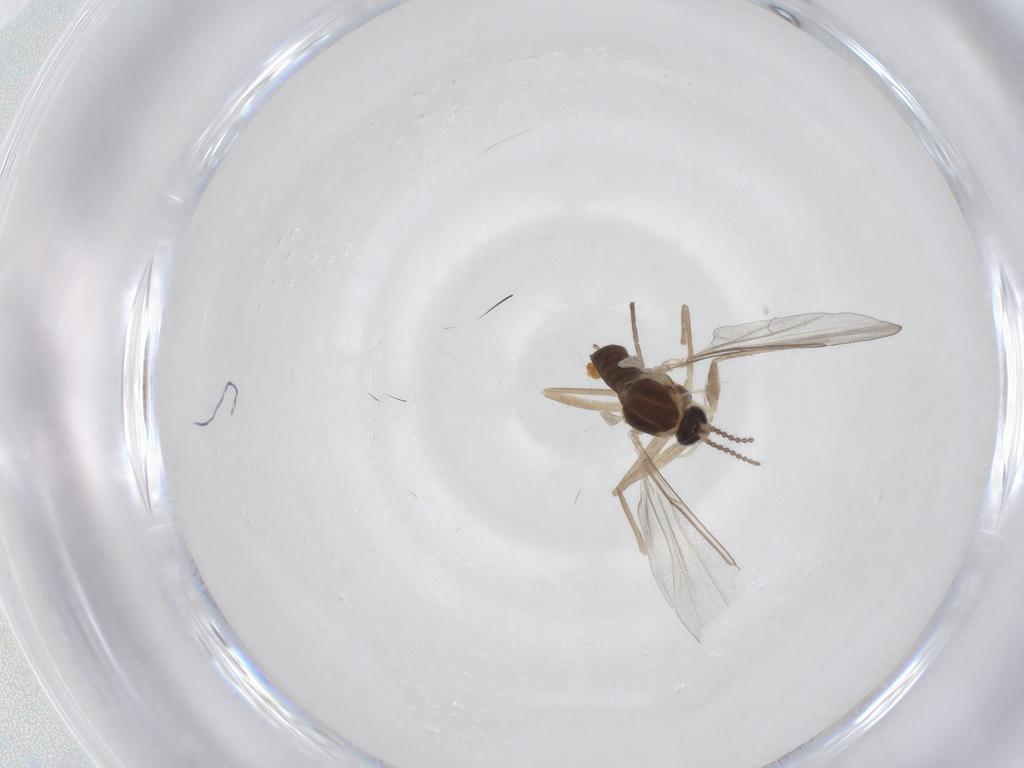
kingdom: Animalia
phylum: Arthropoda
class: Insecta
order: Diptera
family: Cecidomyiidae
